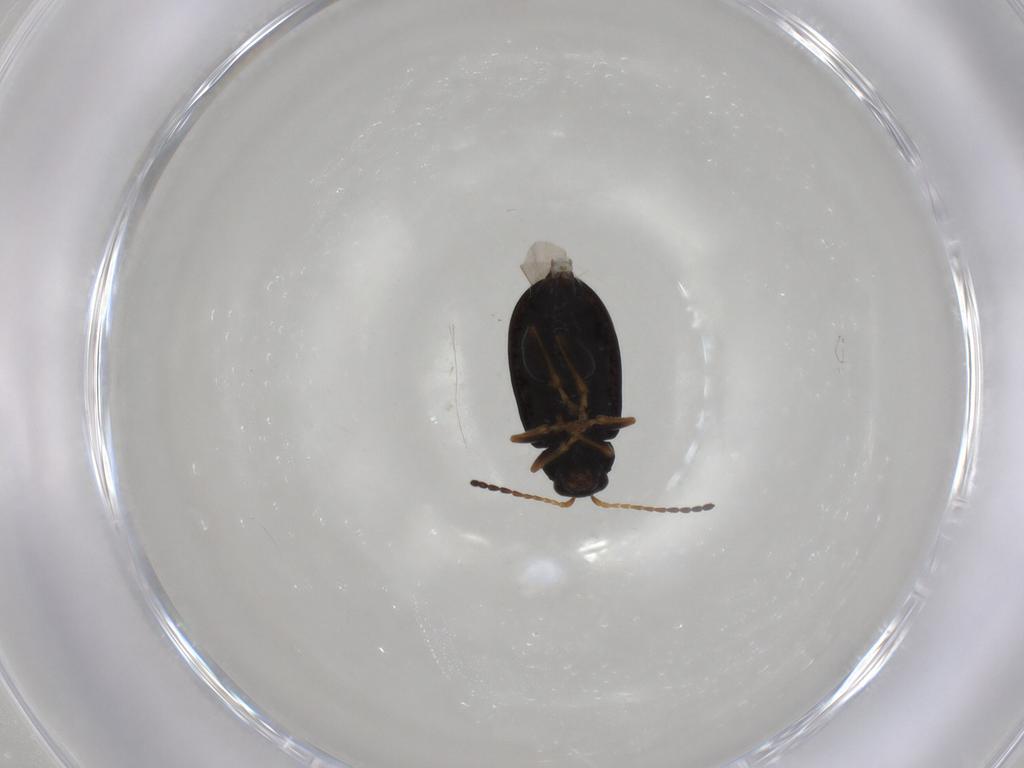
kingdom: Animalia
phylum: Arthropoda
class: Insecta
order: Coleoptera
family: Chrysomelidae
